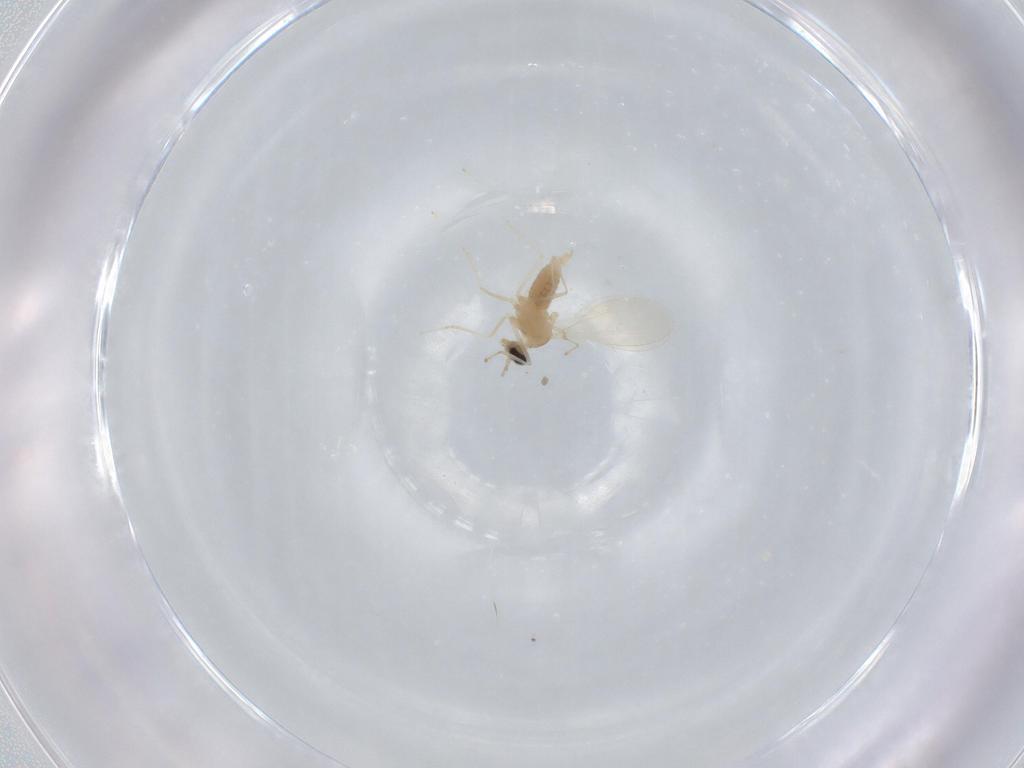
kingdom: Animalia
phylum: Arthropoda
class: Insecta
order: Diptera
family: Cecidomyiidae
